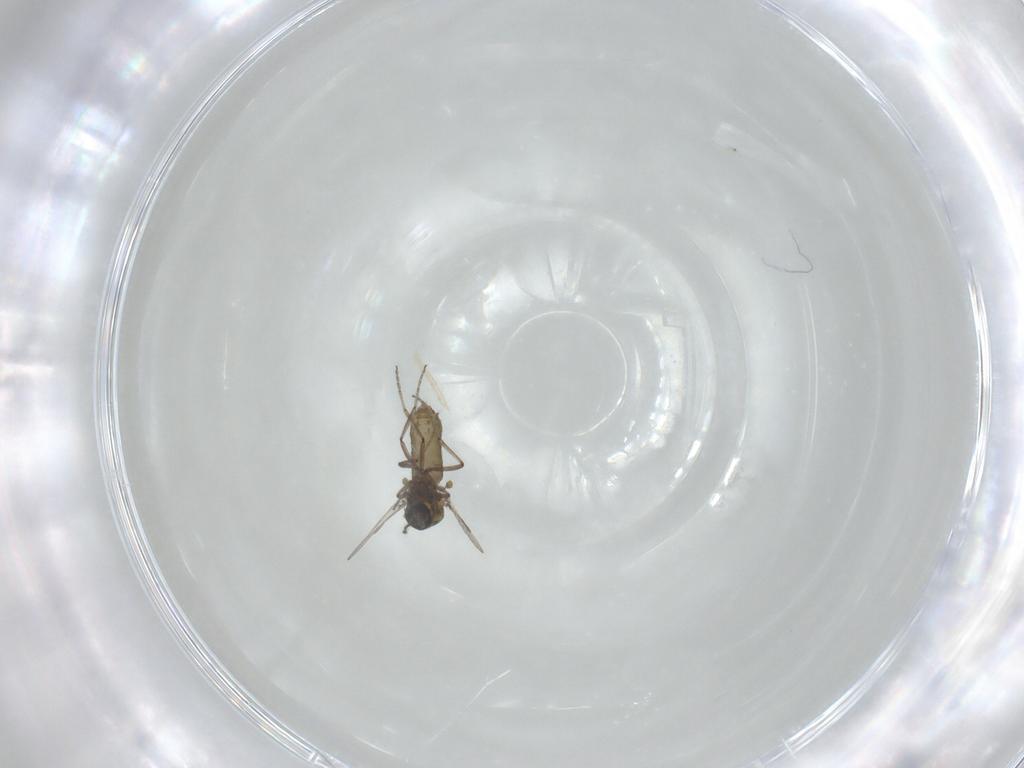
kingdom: Animalia
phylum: Arthropoda
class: Insecta
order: Diptera
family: Ceratopogonidae
